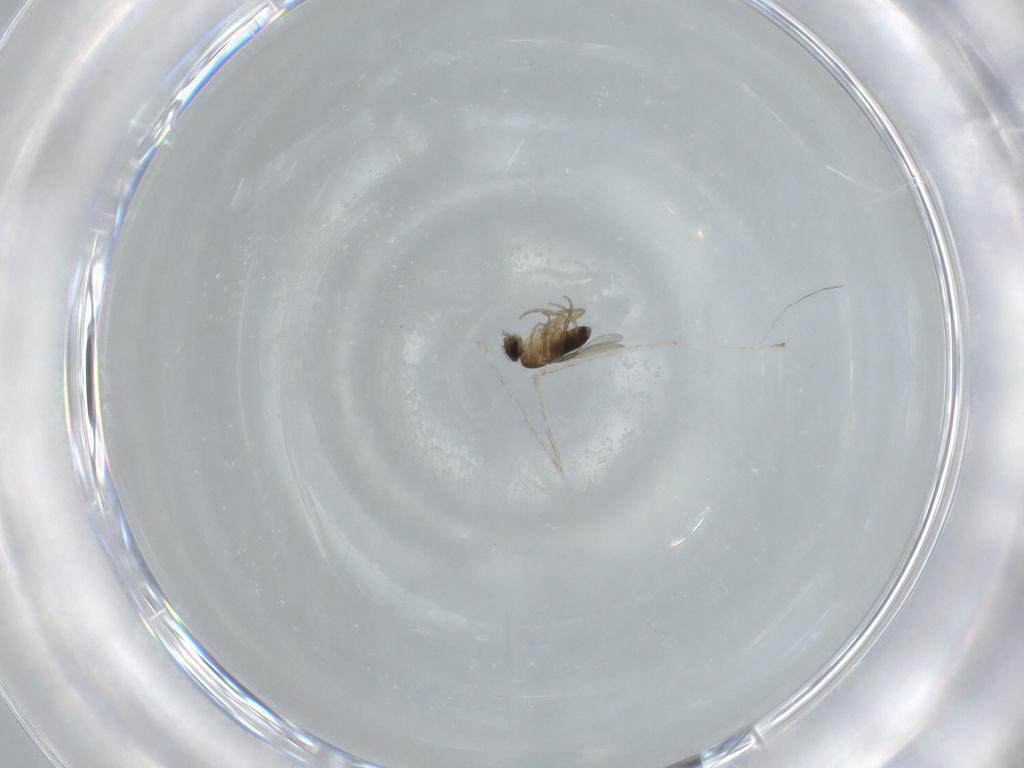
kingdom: Animalia
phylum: Arthropoda
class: Insecta
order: Diptera
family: Phoridae
